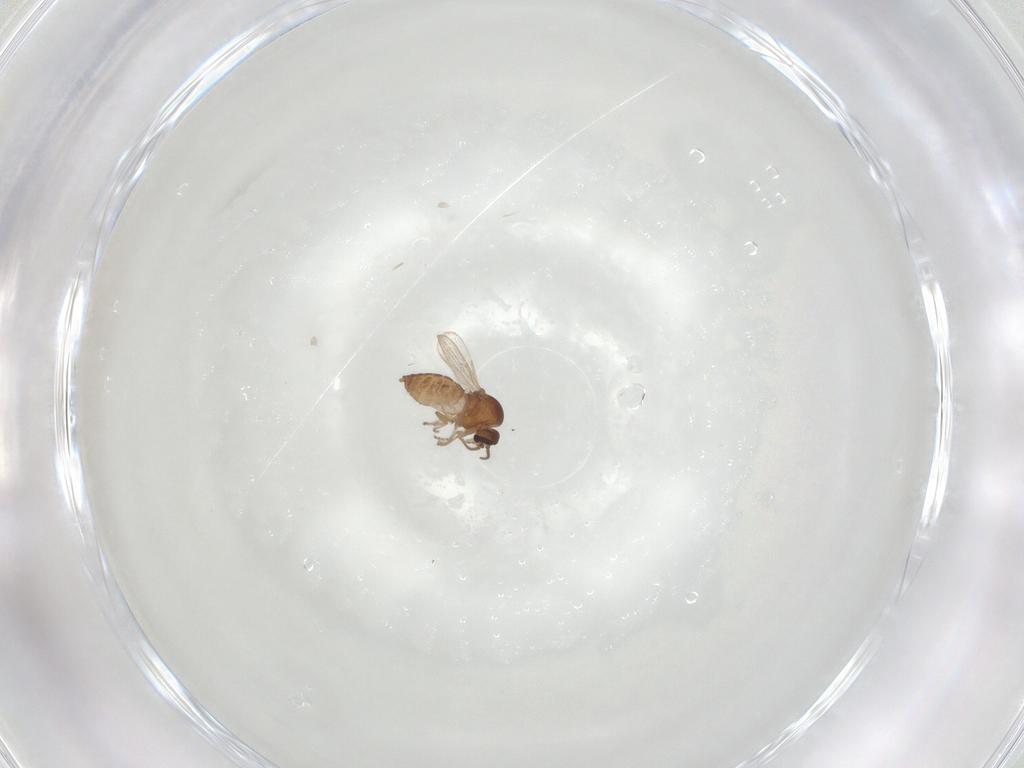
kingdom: Animalia
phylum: Arthropoda
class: Insecta
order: Diptera
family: Ceratopogonidae
